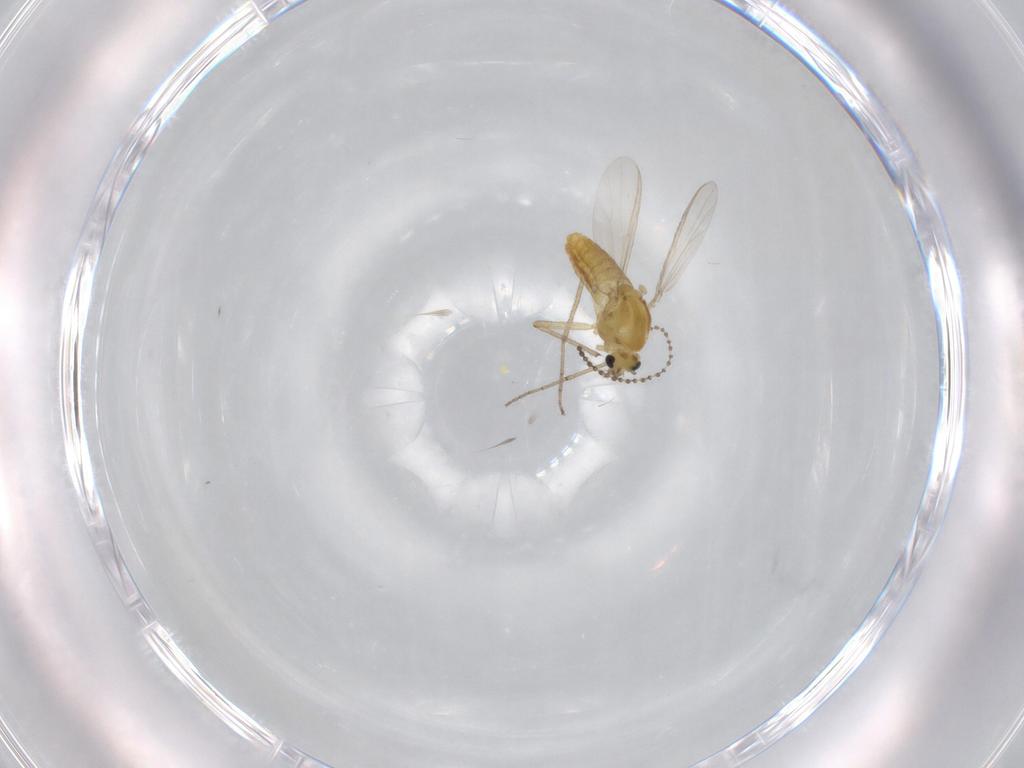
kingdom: Animalia
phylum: Arthropoda
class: Insecta
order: Diptera
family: Chironomidae
